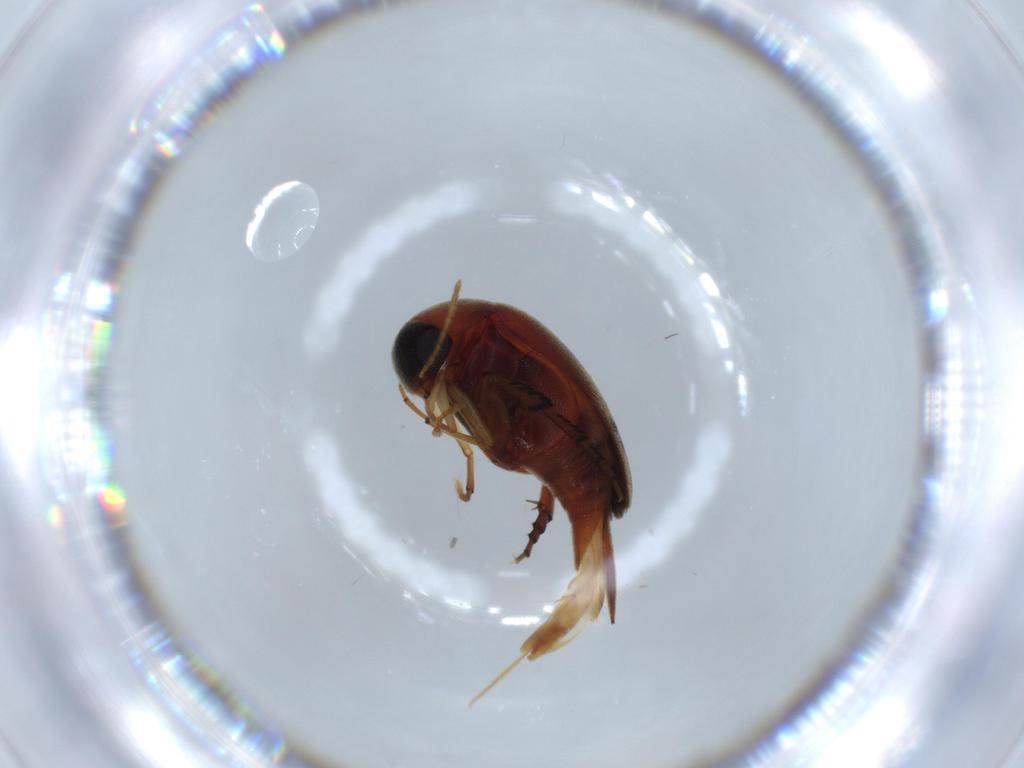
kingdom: Animalia
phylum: Arthropoda
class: Insecta
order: Coleoptera
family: Mordellidae
